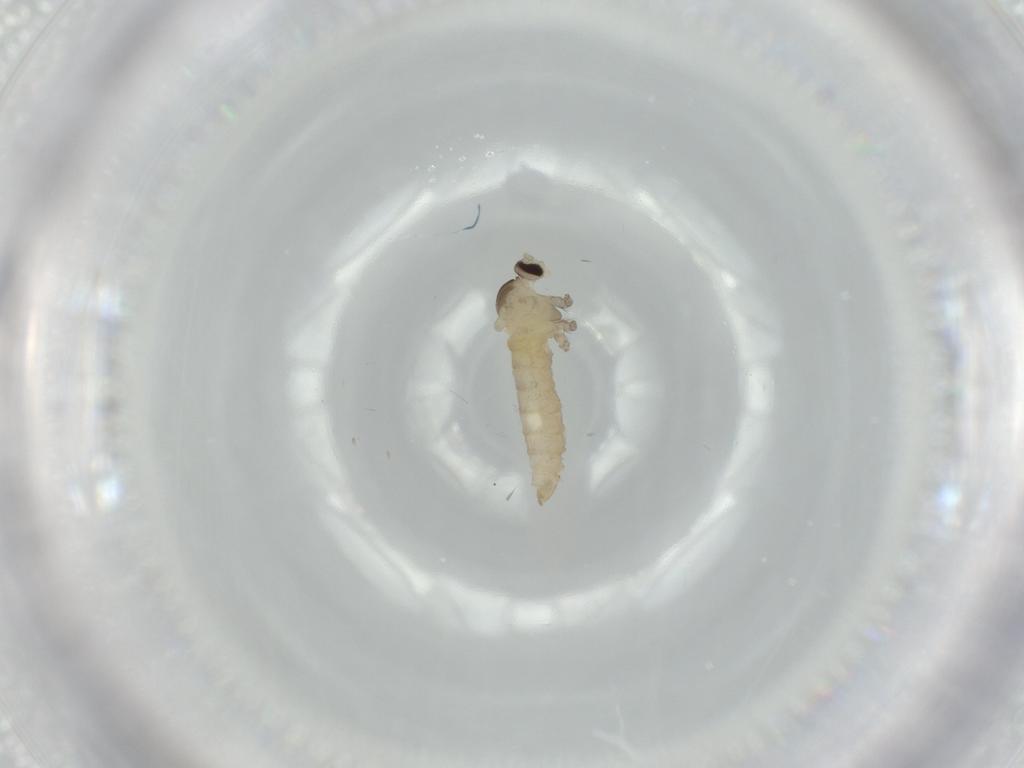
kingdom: Animalia
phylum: Arthropoda
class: Insecta
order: Diptera
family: Cecidomyiidae
